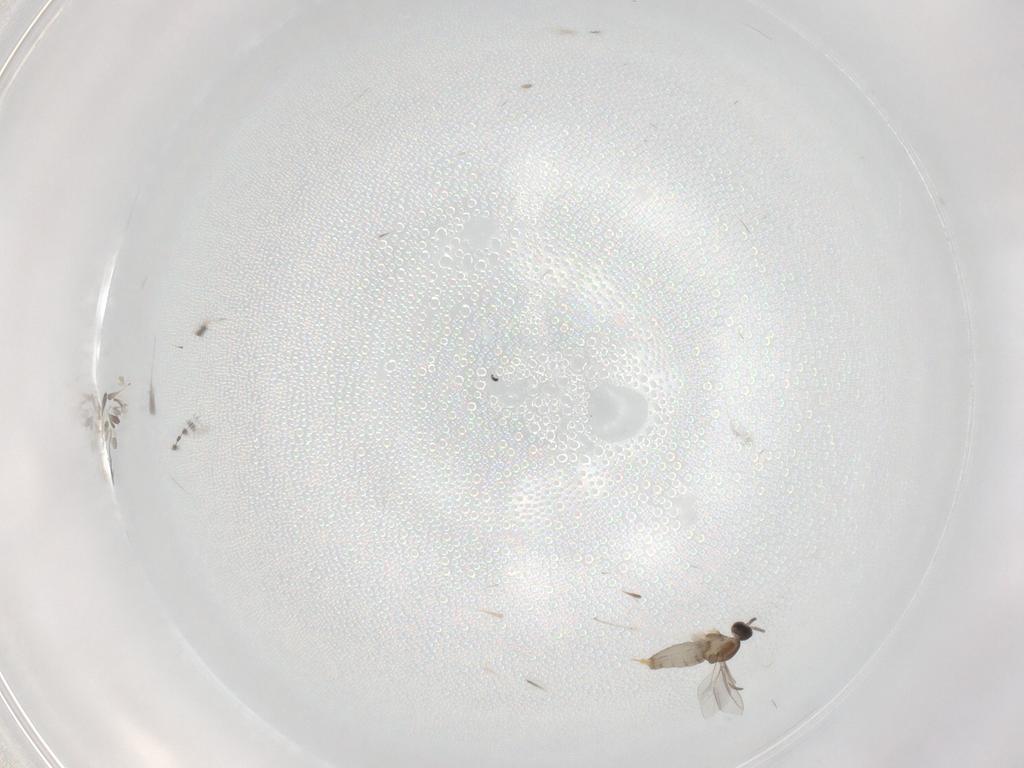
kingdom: Animalia
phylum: Arthropoda
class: Insecta
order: Diptera
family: Cecidomyiidae
